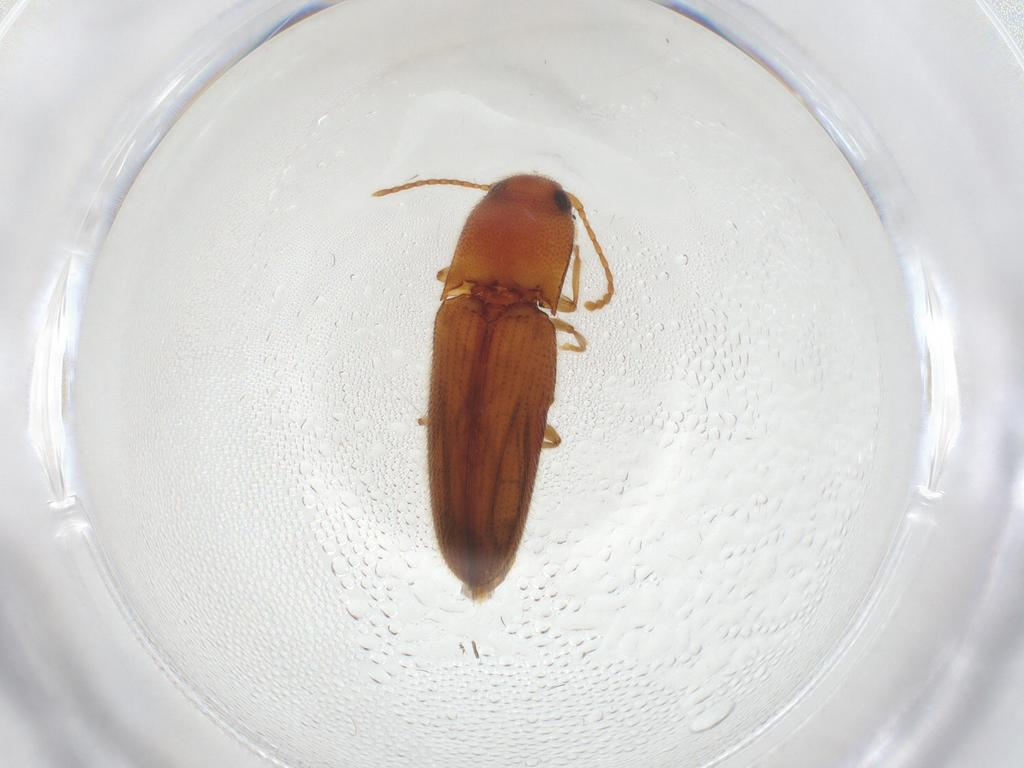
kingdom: Animalia
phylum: Arthropoda
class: Insecta
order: Coleoptera
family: Elateridae
